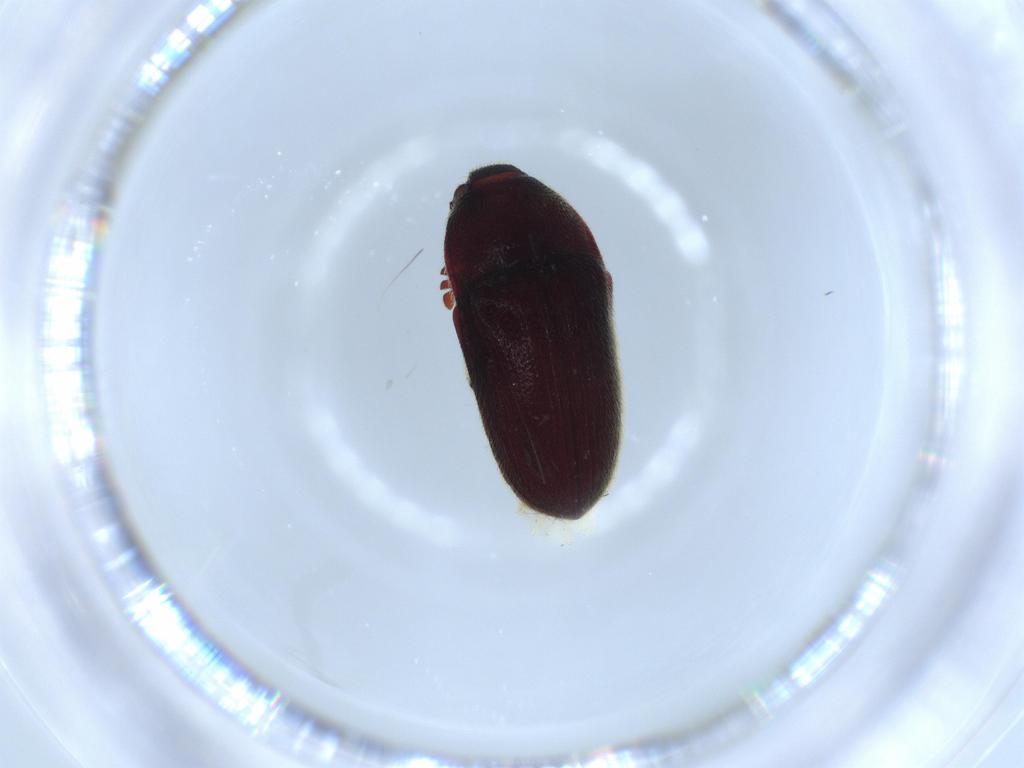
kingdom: Animalia
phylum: Arthropoda
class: Insecta
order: Coleoptera
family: Throscidae
